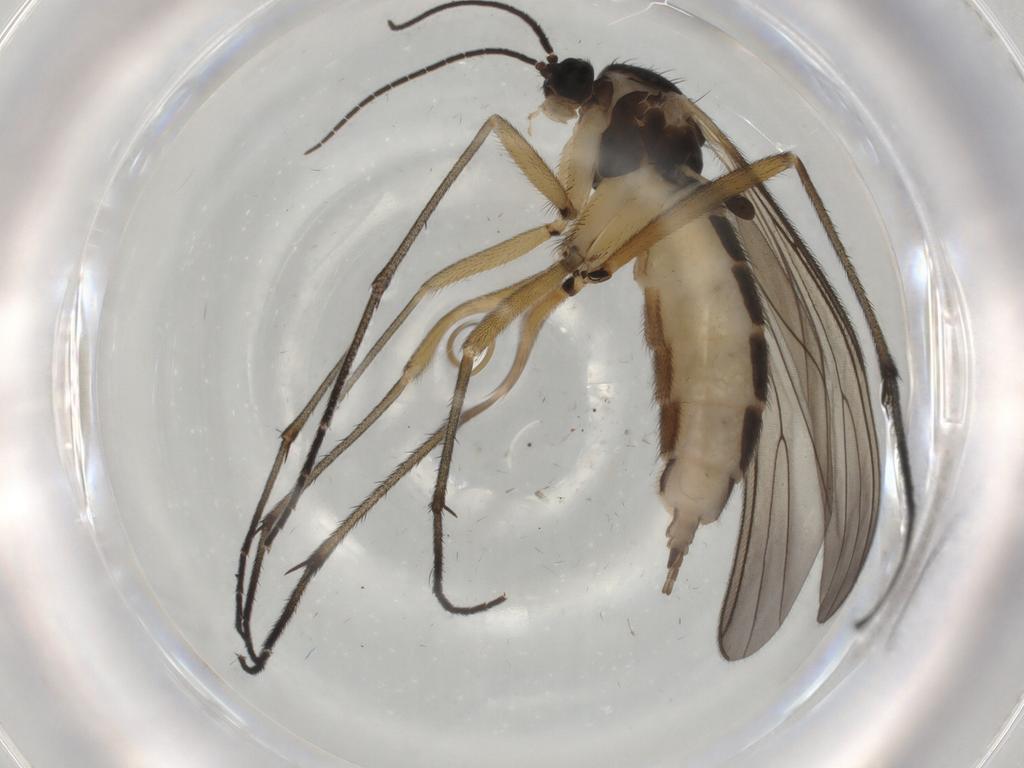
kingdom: Animalia
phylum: Arthropoda
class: Insecta
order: Diptera
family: Sciaridae
